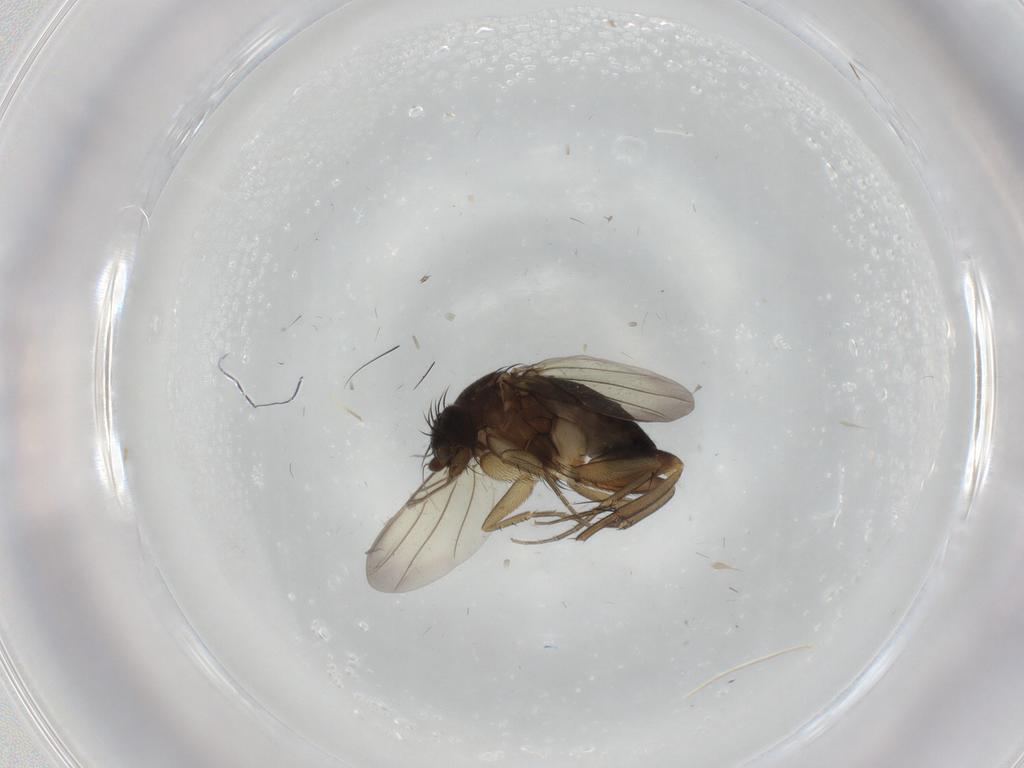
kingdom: Animalia
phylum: Arthropoda
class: Insecta
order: Diptera
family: Phoridae
